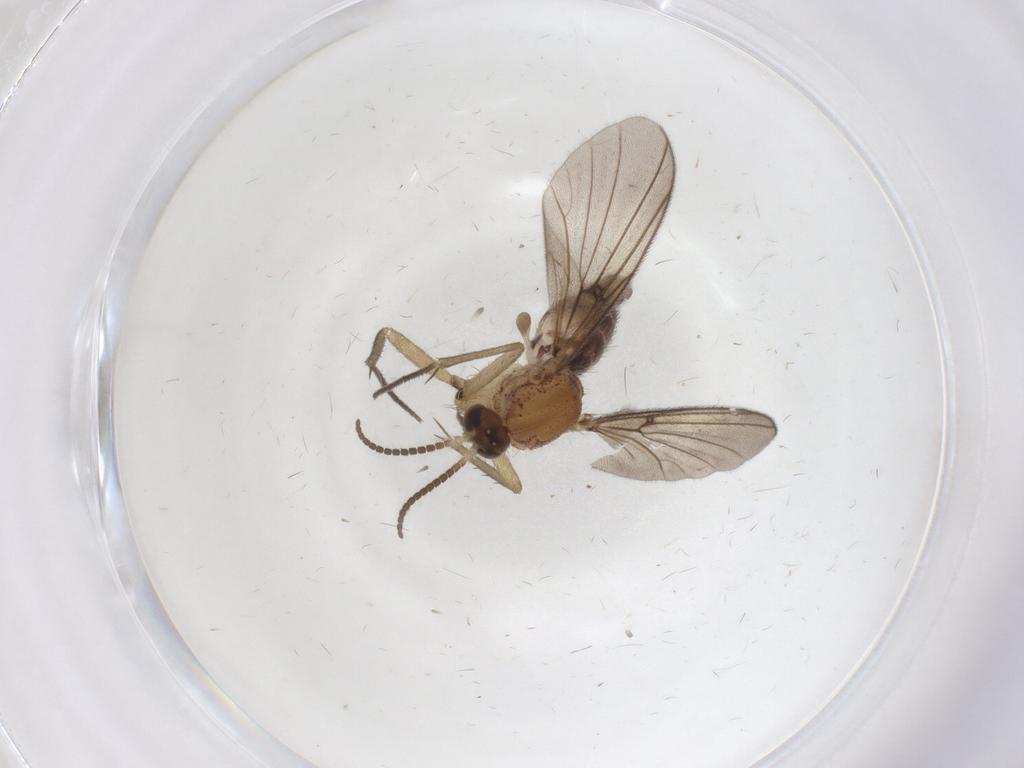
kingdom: Animalia
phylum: Arthropoda
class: Insecta
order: Diptera
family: Chironomidae
